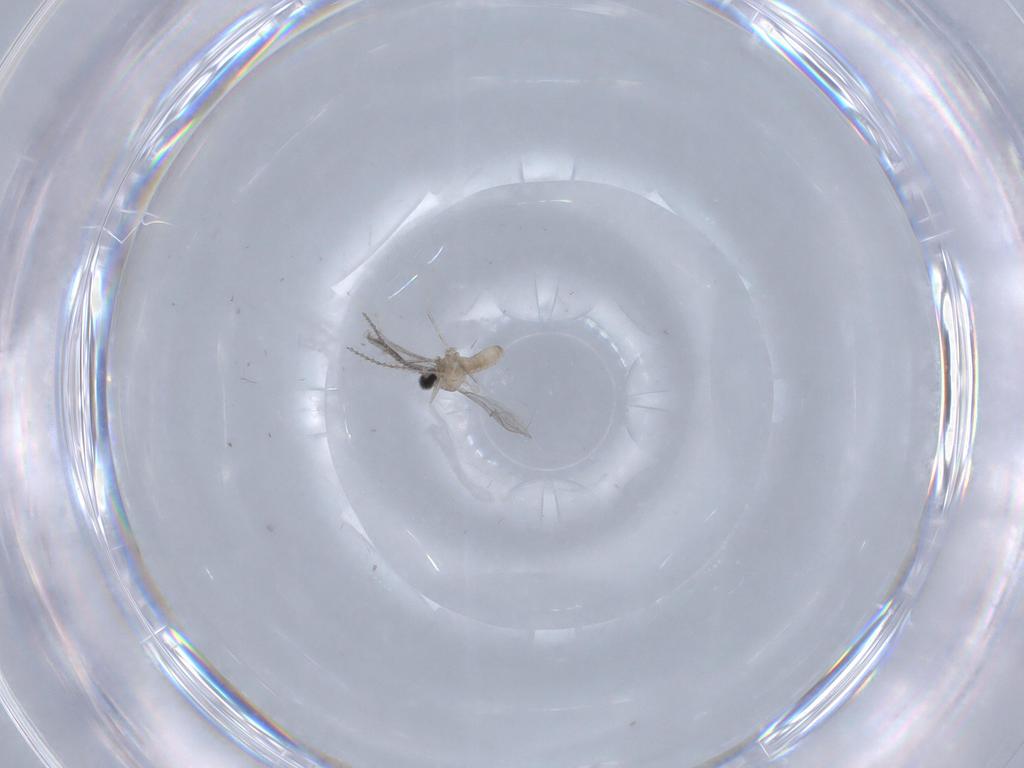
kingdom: Animalia
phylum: Arthropoda
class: Insecta
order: Diptera
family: Cecidomyiidae
